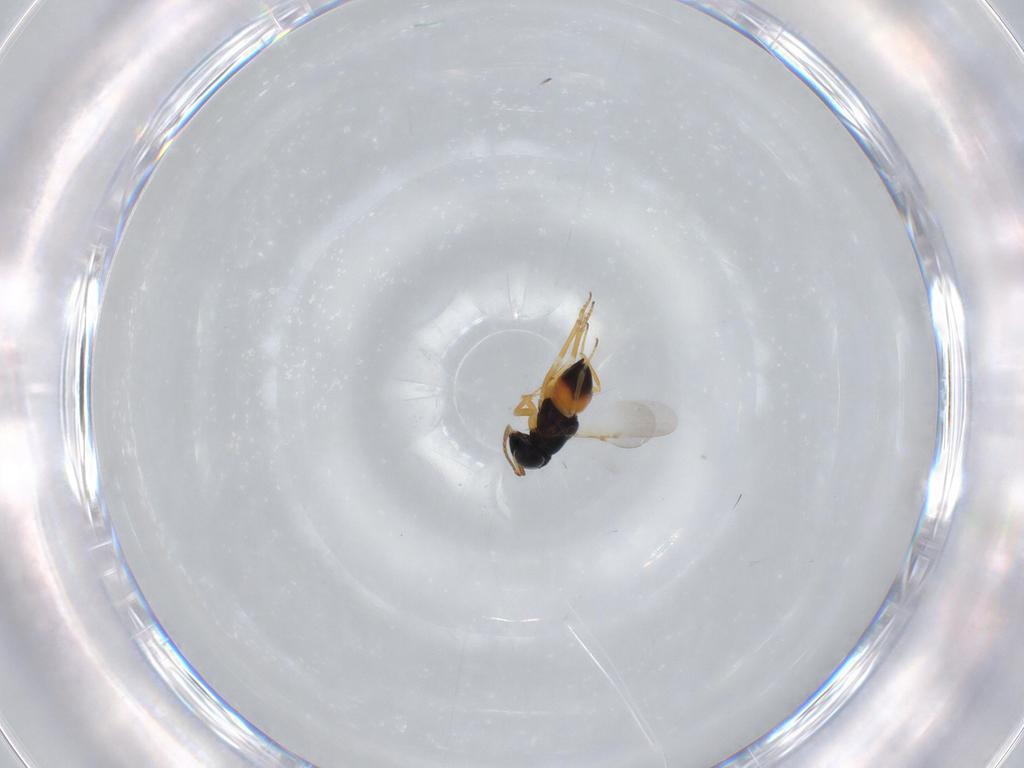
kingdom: Animalia
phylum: Arthropoda
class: Insecta
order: Hymenoptera
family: Encyrtidae
